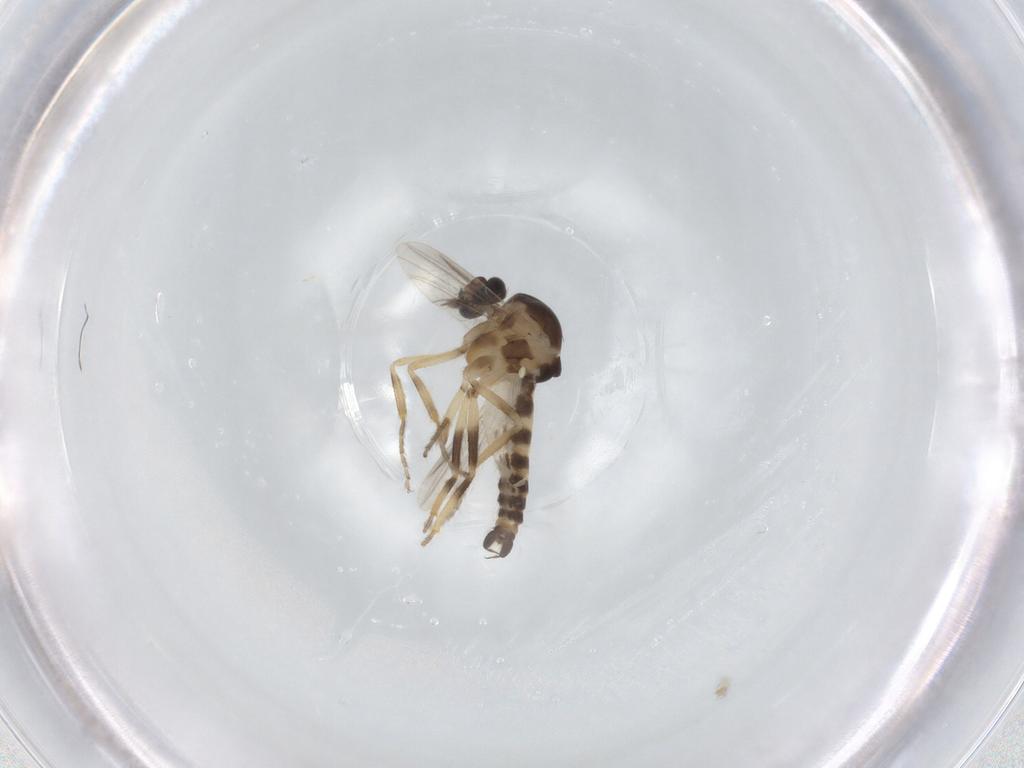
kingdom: Animalia
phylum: Arthropoda
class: Insecta
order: Diptera
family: Ceratopogonidae
